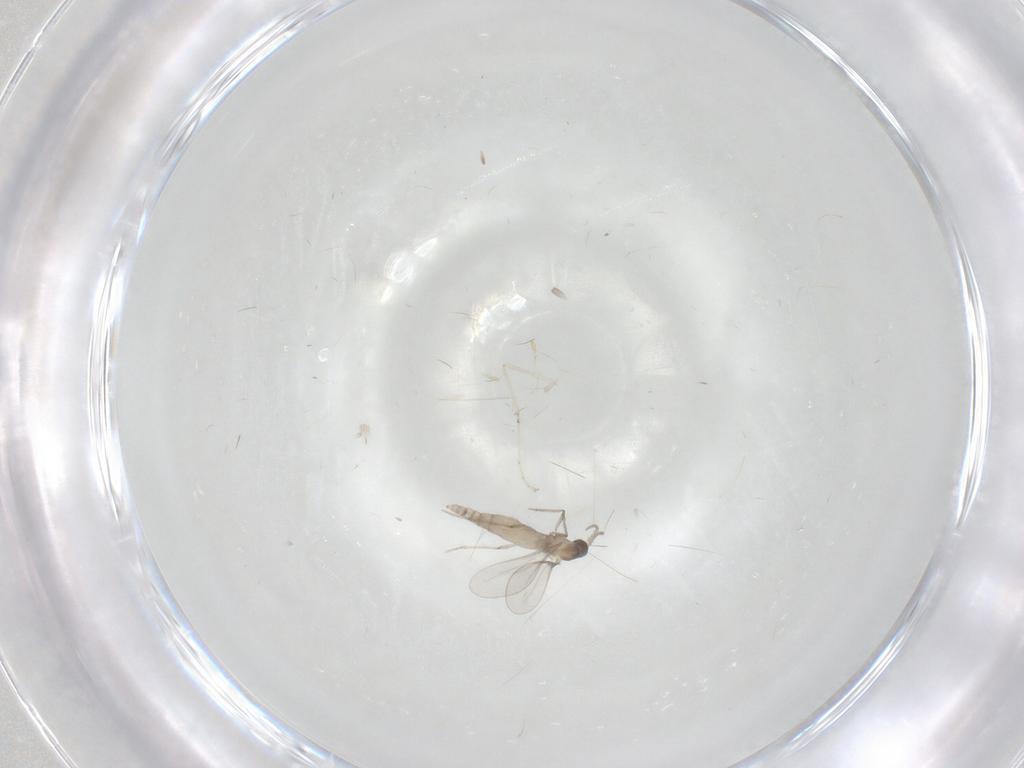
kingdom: Animalia
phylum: Arthropoda
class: Insecta
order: Diptera
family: Cecidomyiidae
